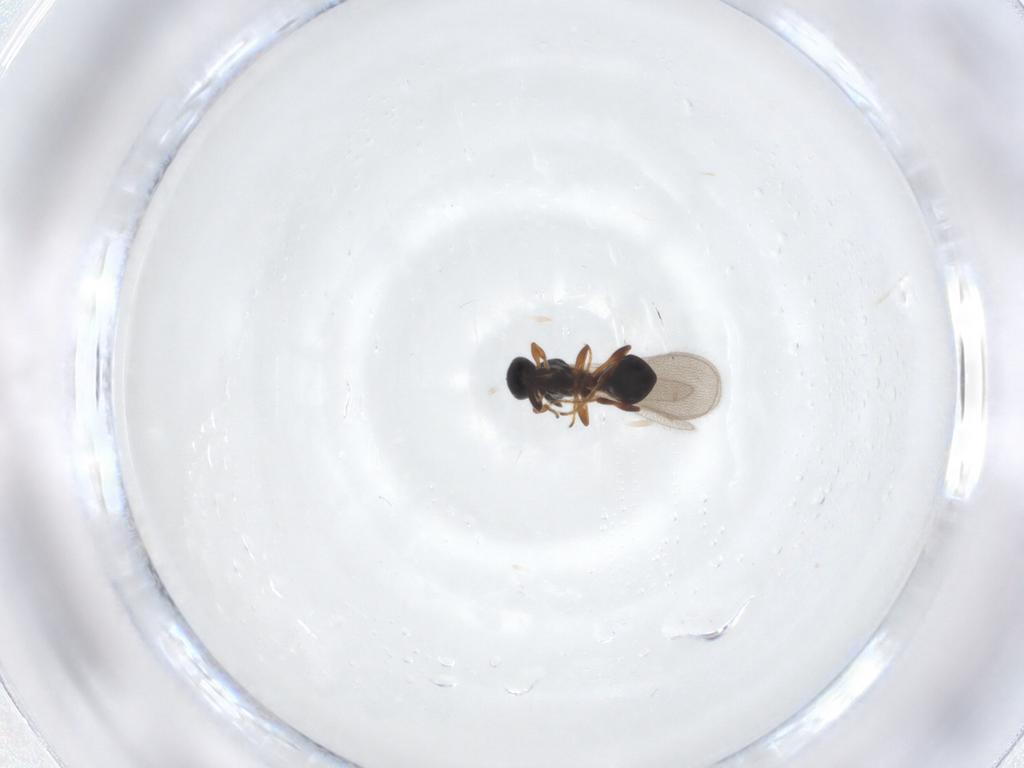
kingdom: Animalia
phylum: Arthropoda
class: Insecta
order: Hymenoptera
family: Platygastridae
